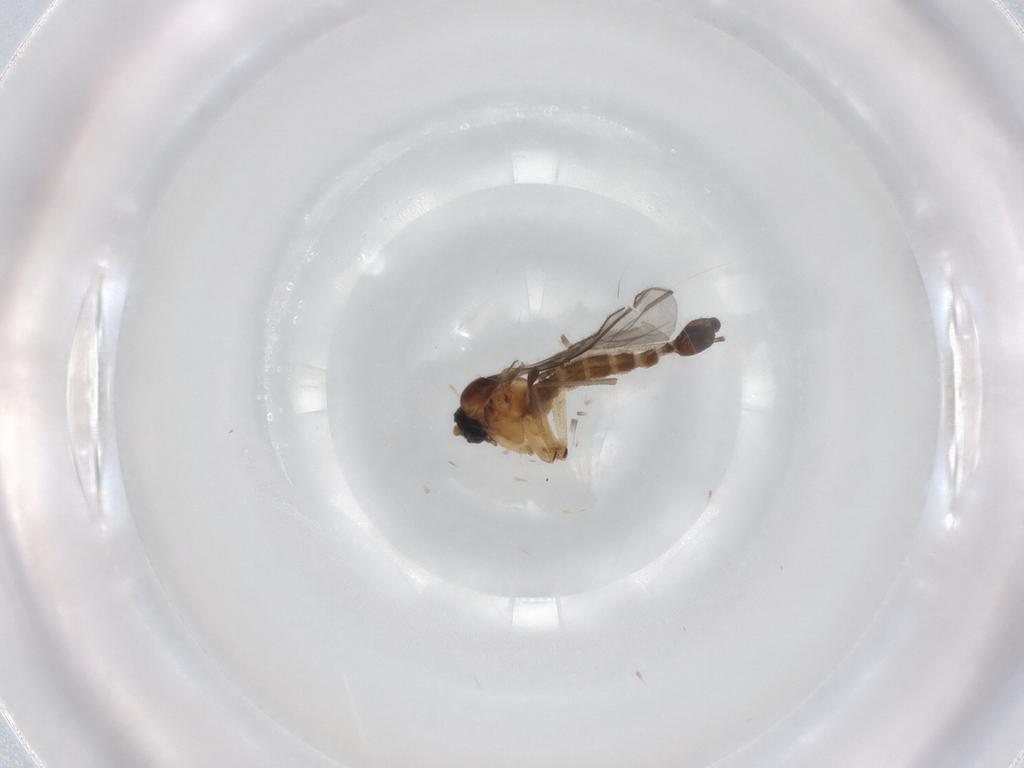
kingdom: Animalia
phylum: Arthropoda
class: Insecta
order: Diptera
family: Sciaridae
